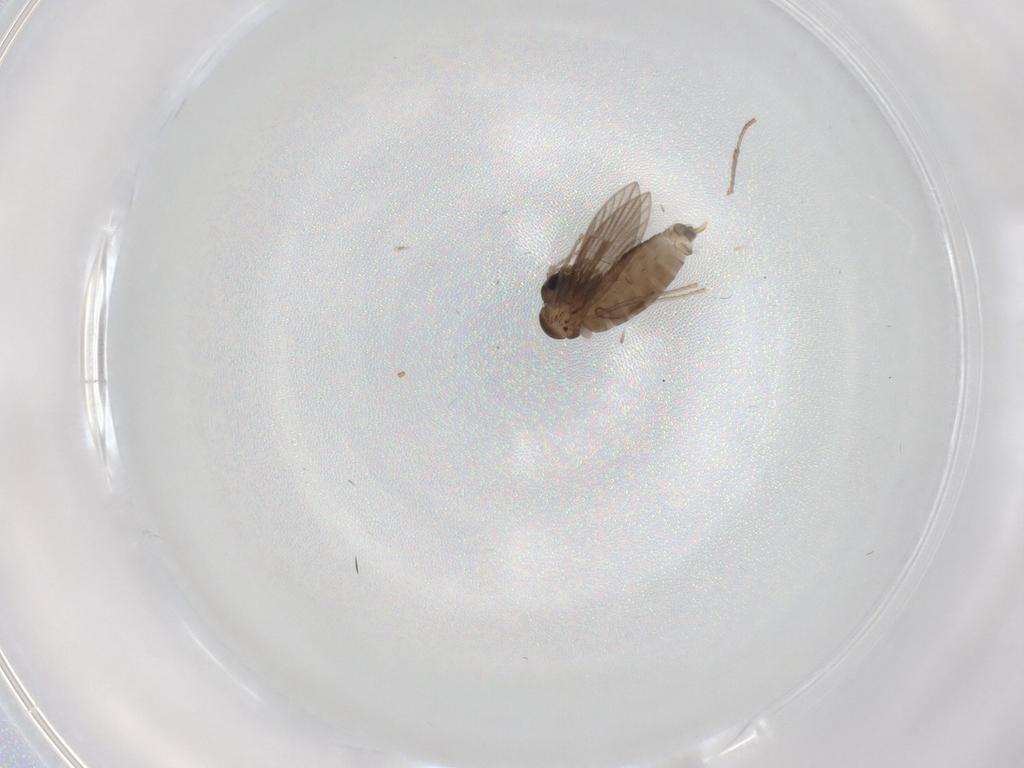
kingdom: Animalia
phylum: Arthropoda
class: Insecta
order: Diptera
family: Psychodidae
